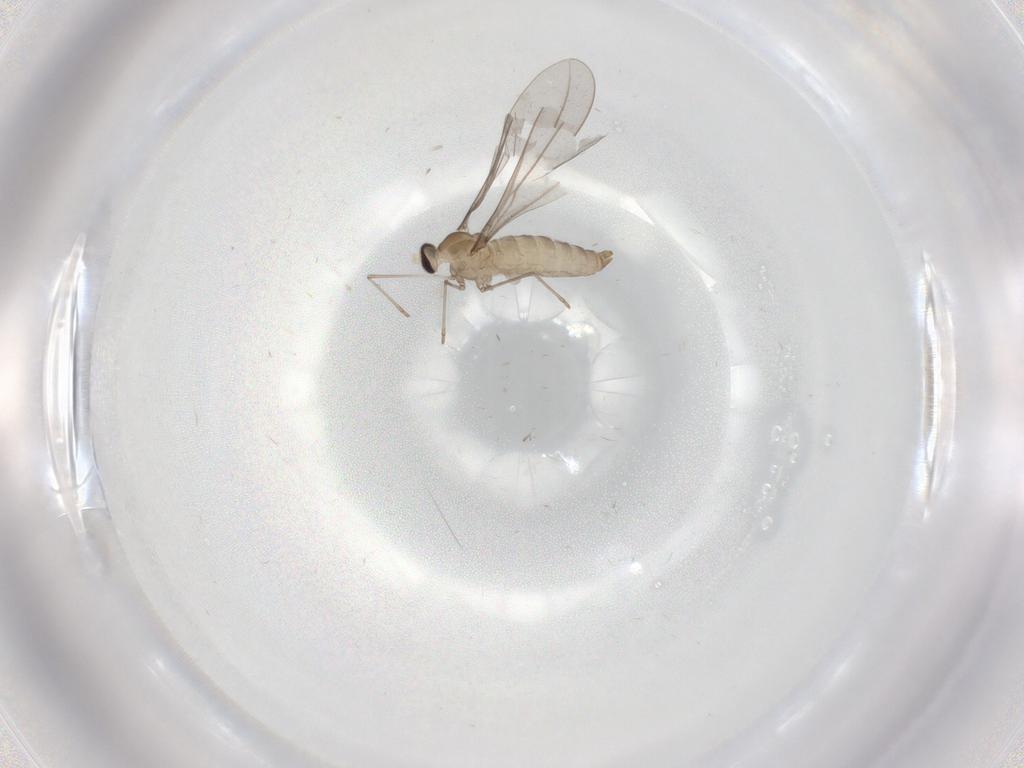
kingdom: Animalia
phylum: Arthropoda
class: Insecta
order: Diptera
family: Cecidomyiidae
